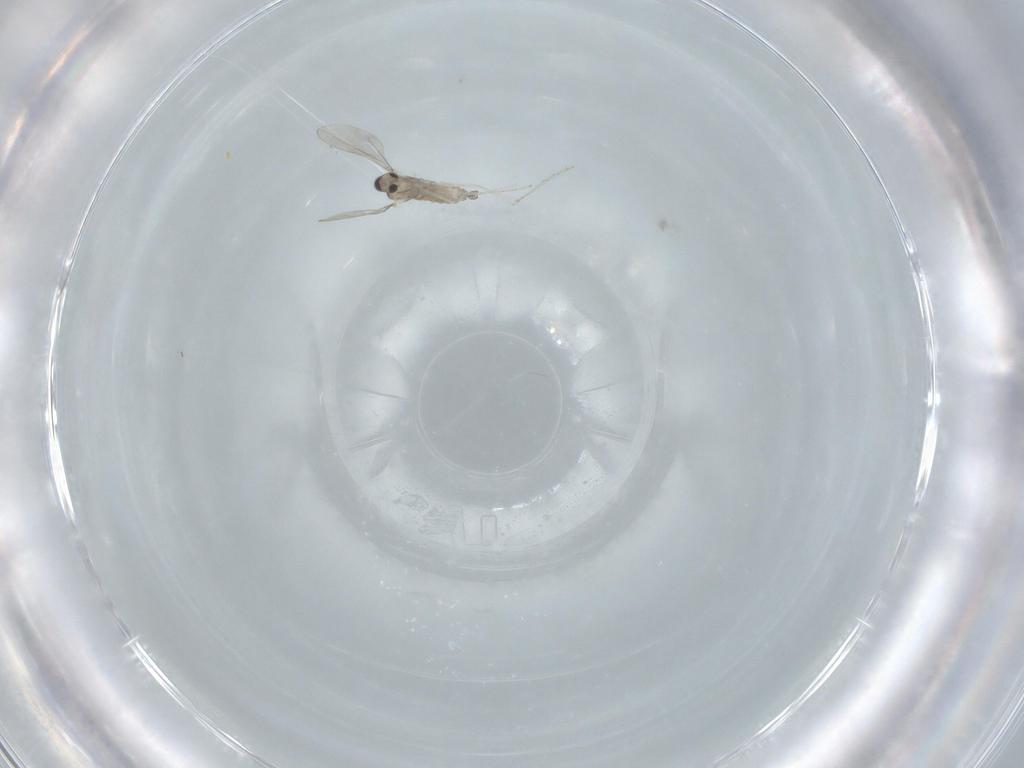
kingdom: Animalia
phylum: Arthropoda
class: Insecta
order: Diptera
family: Cecidomyiidae
